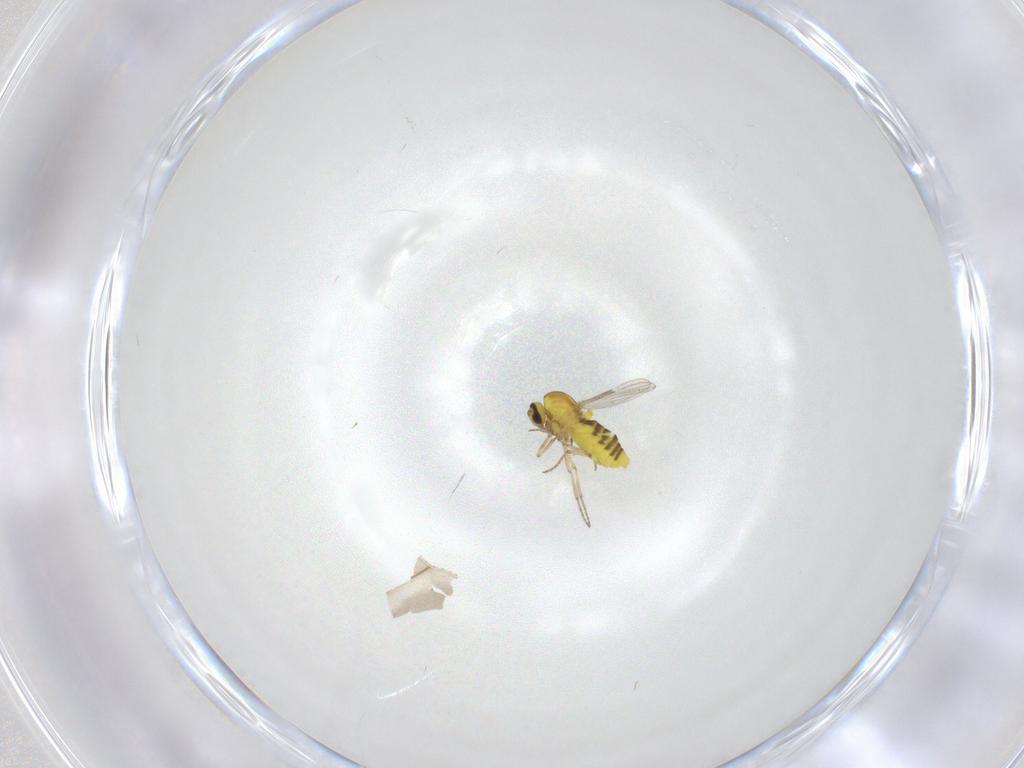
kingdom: Animalia
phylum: Arthropoda
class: Insecta
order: Diptera
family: Ceratopogonidae
